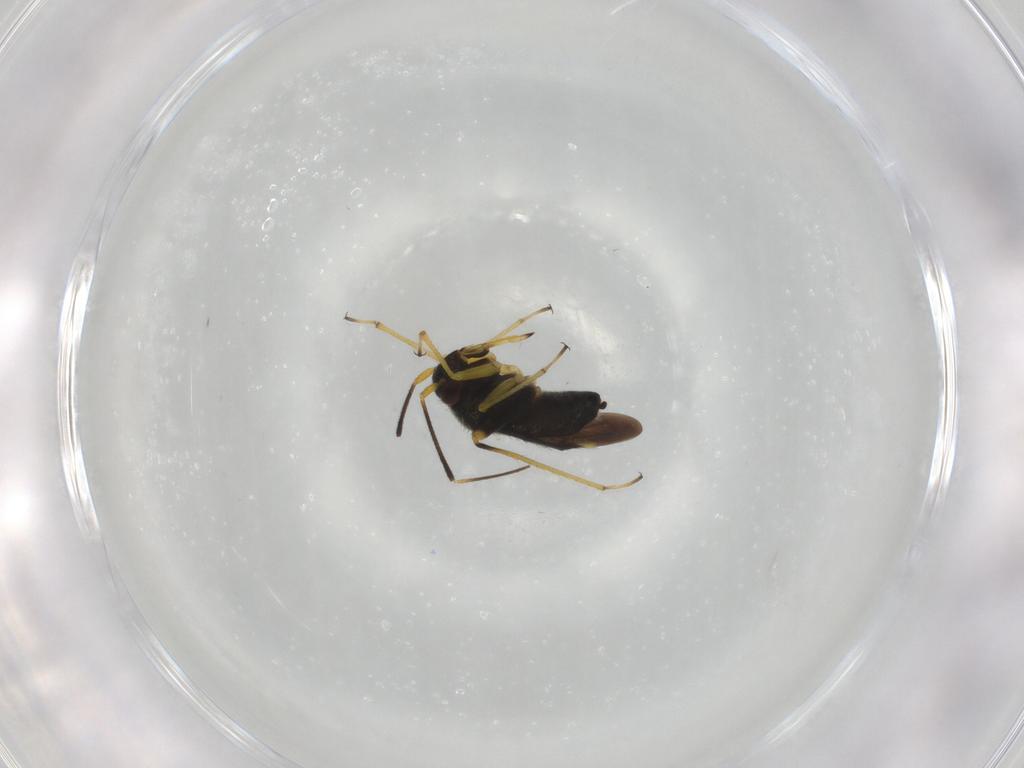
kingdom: Animalia
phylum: Arthropoda
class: Insecta
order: Hemiptera
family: Miridae
